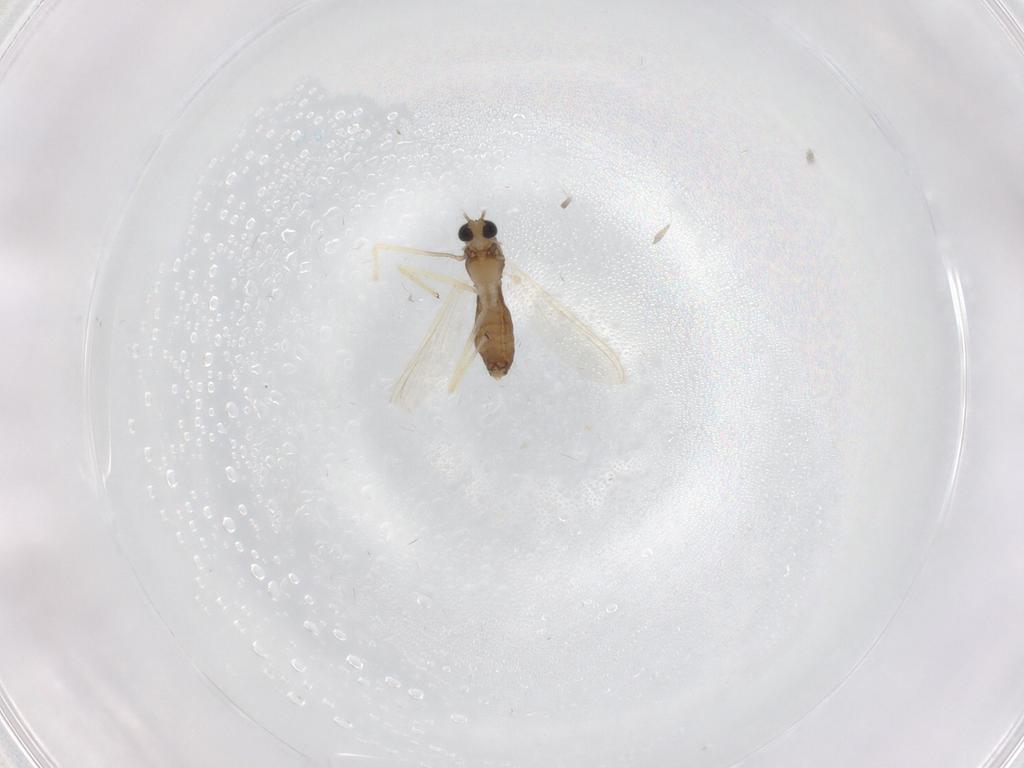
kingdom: Animalia
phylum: Arthropoda
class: Insecta
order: Diptera
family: Chironomidae
